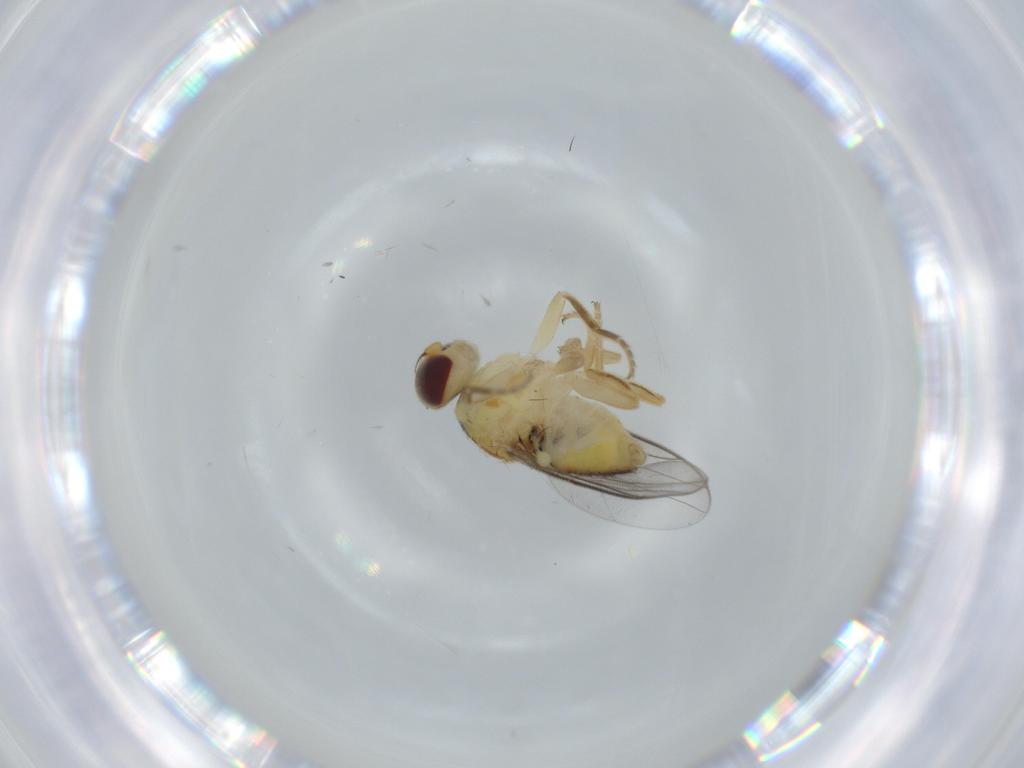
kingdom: Animalia
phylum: Arthropoda
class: Insecta
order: Diptera
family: Chloropidae
